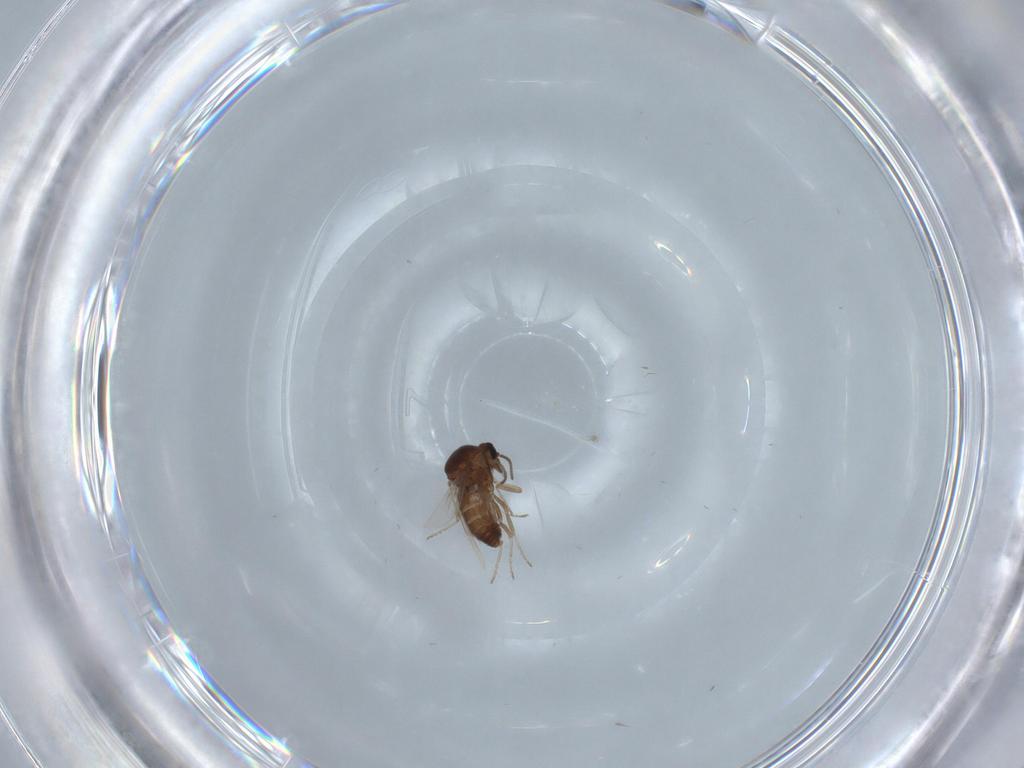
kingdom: Animalia
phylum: Arthropoda
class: Insecta
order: Diptera
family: Ceratopogonidae
